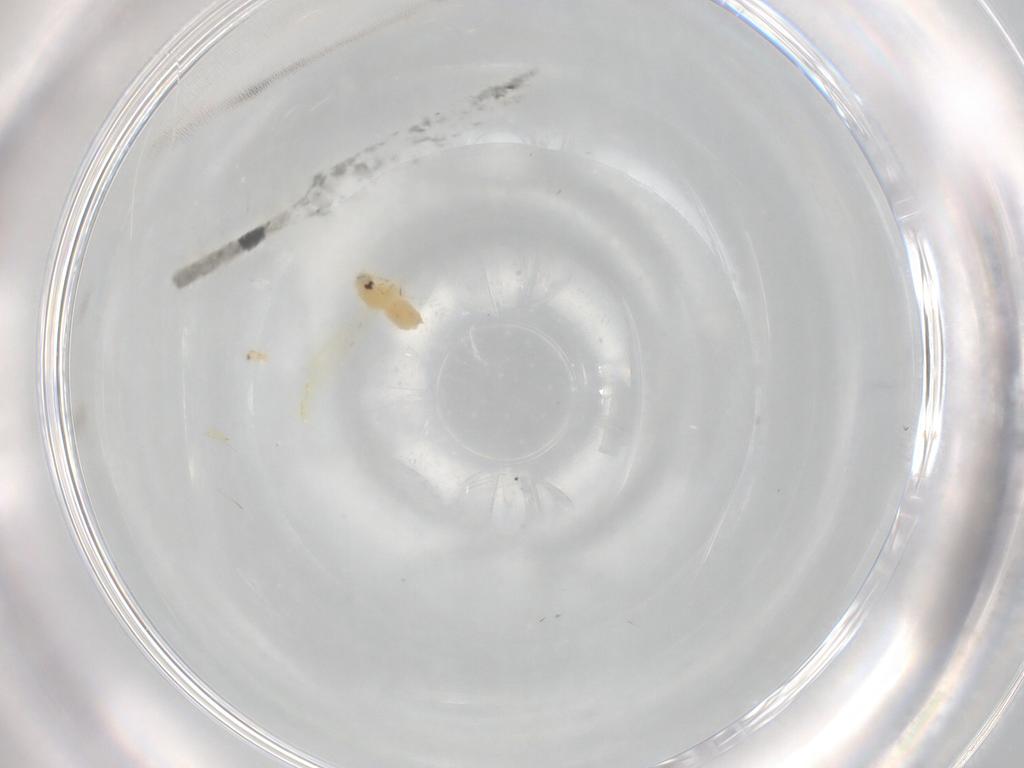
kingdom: Animalia
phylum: Arthropoda
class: Insecta
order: Hemiptera
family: Aleyrodidae
